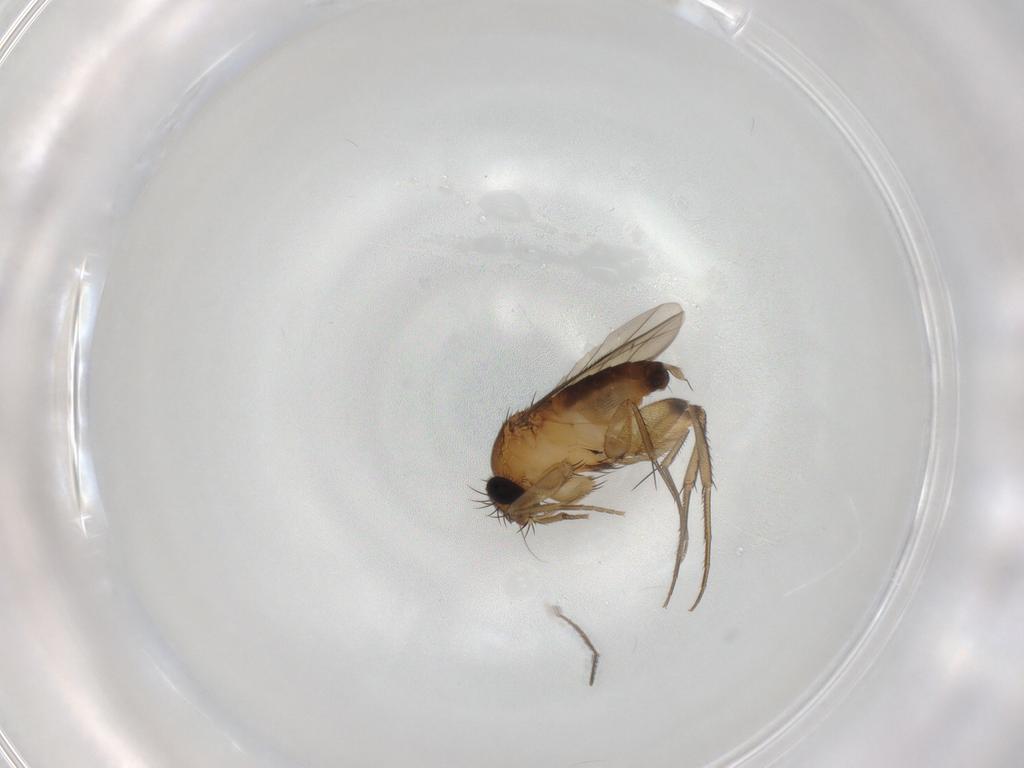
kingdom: Animalia
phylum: Arthropoda
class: Insecta
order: Diptera
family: Phoridae
